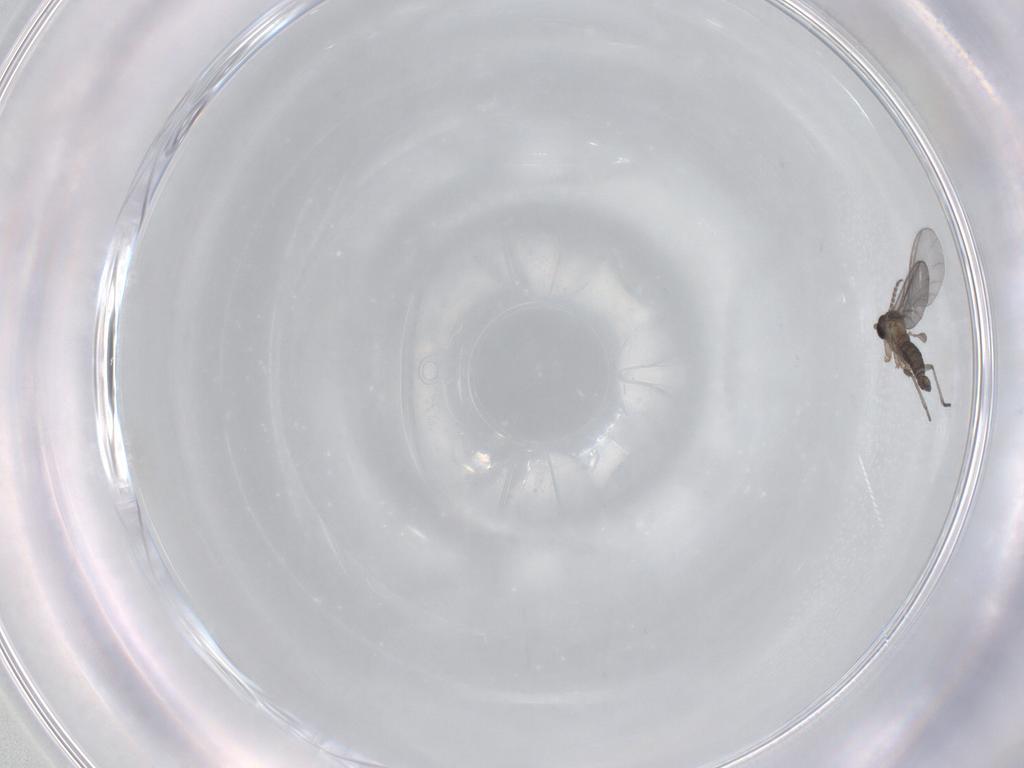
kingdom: Animalia
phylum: Arthropoda
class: Insecta
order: Diptera
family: Sciaridae
